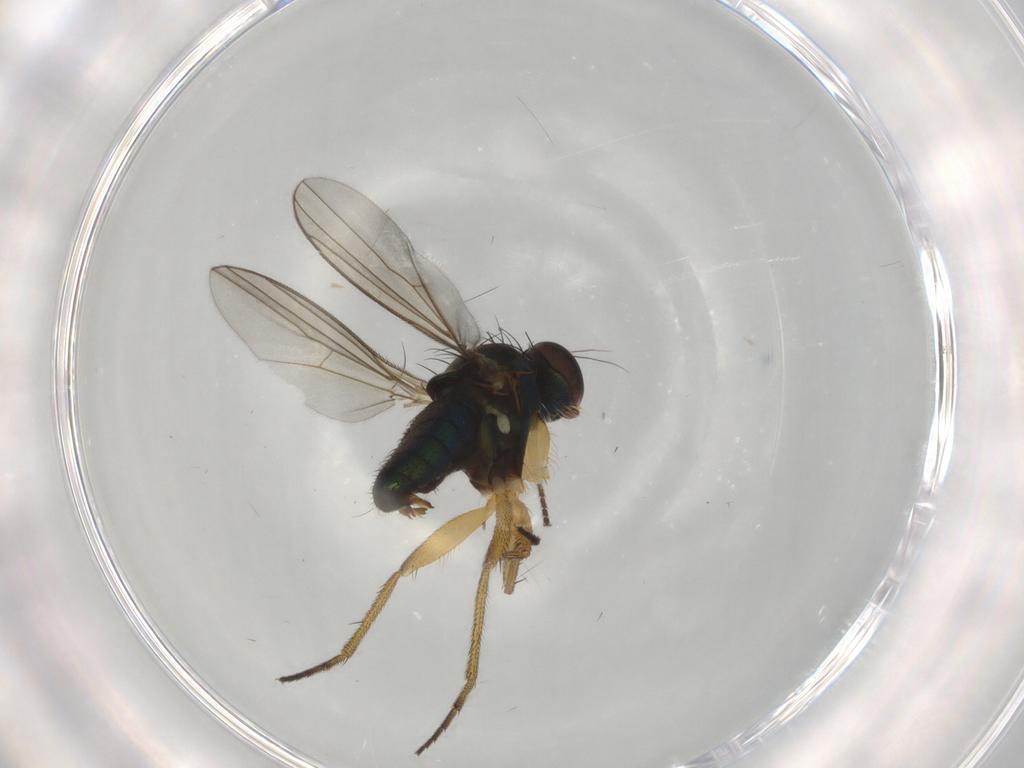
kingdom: Animalia
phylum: Arthropoda
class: Insecta
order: Diptera
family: Dolichopodidae
